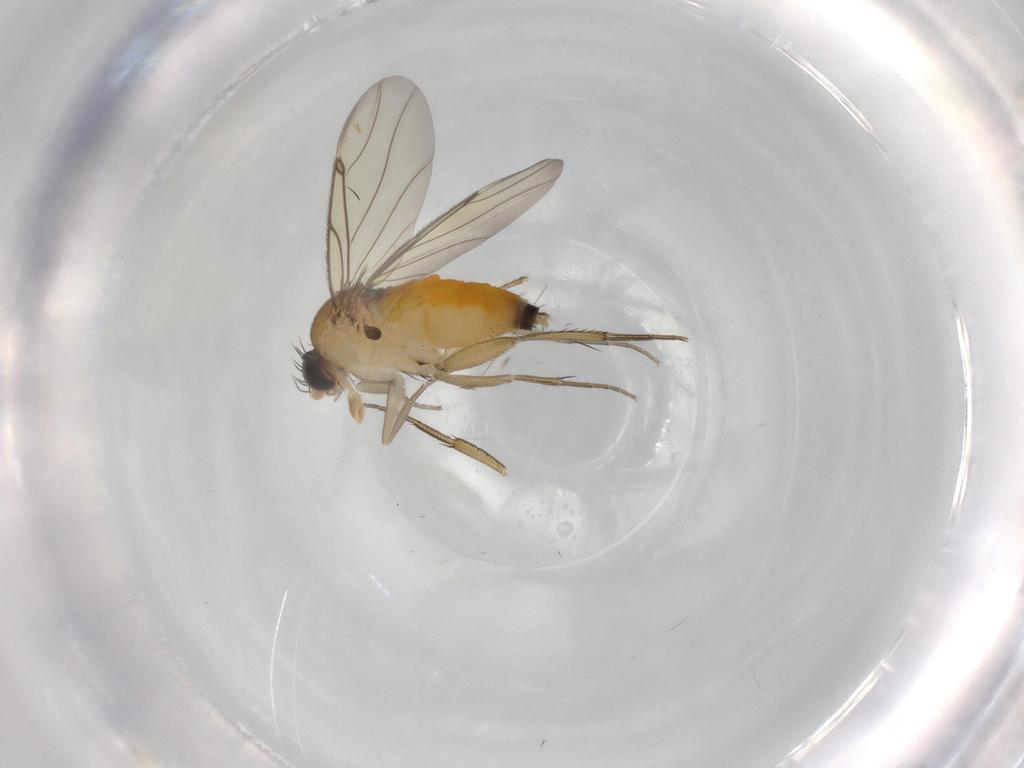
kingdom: Animalia
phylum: Arthropoda
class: Insecta
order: Diptera
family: Phoridae
